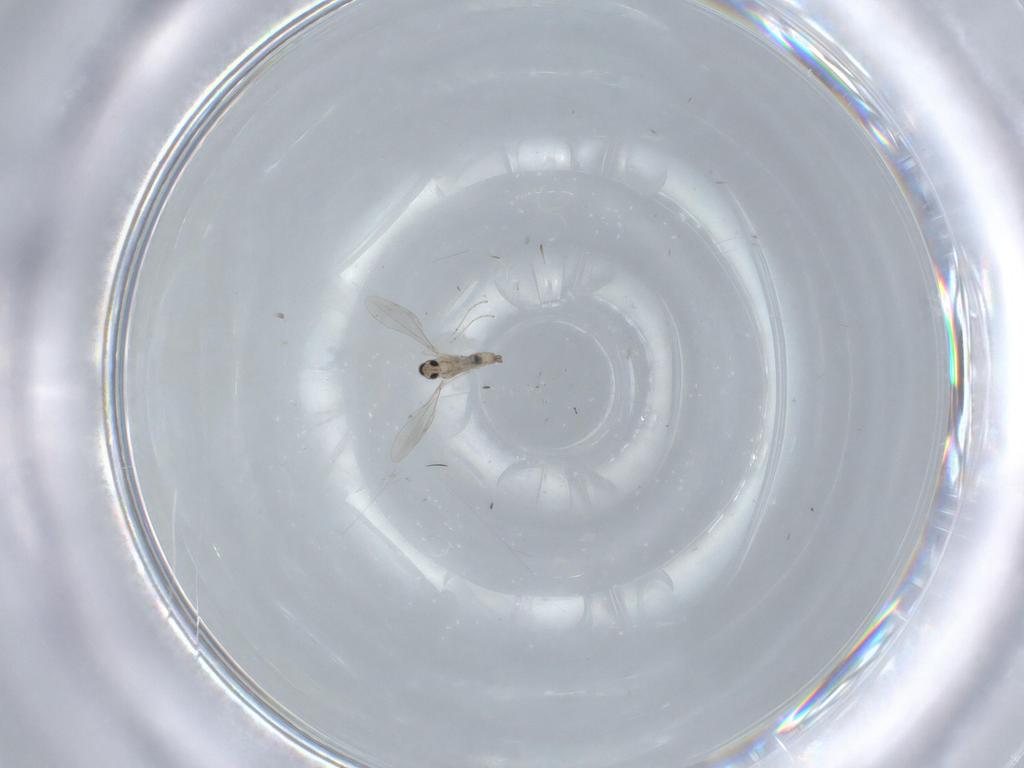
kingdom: Animalia
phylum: Arthropoda
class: Insecta
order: Diptera
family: Cecidomyiidae
